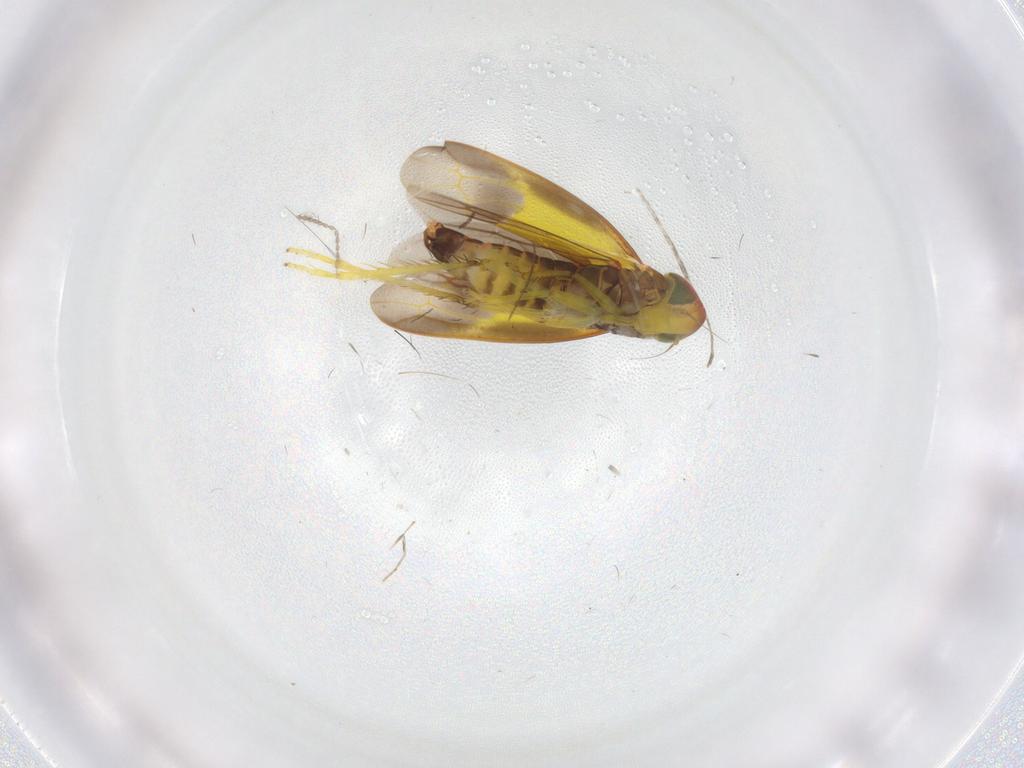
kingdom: Animalia
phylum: Arthropoda
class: Insecta
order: Hemiptera
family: Cicadellidae
